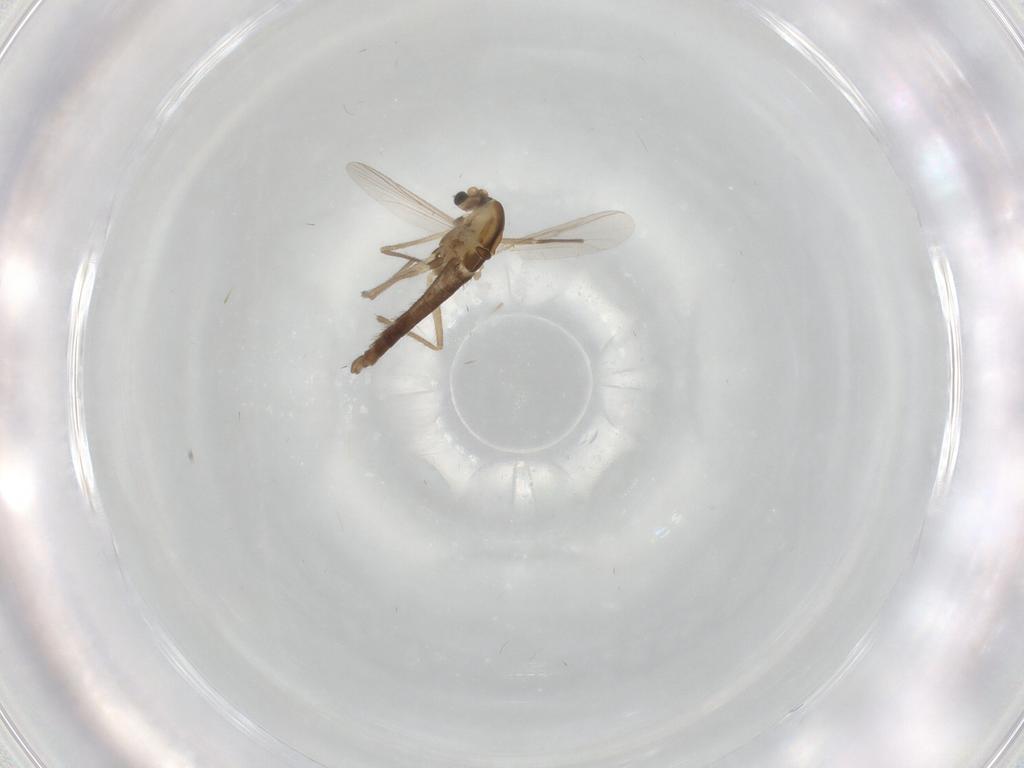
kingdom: Animalia
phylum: Arthropoda
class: Insecta
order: Diptera
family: Chironomidae
